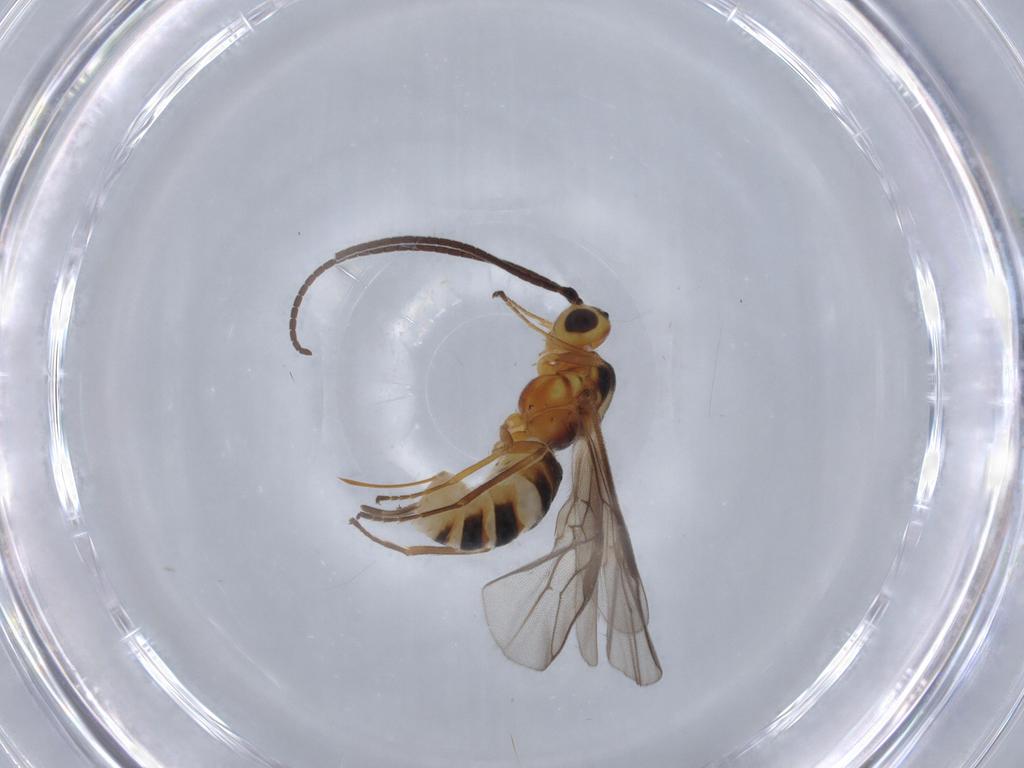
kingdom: Animalia
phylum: Arthropoda
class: Insecta
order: Hymenoptera
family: Braconidae
